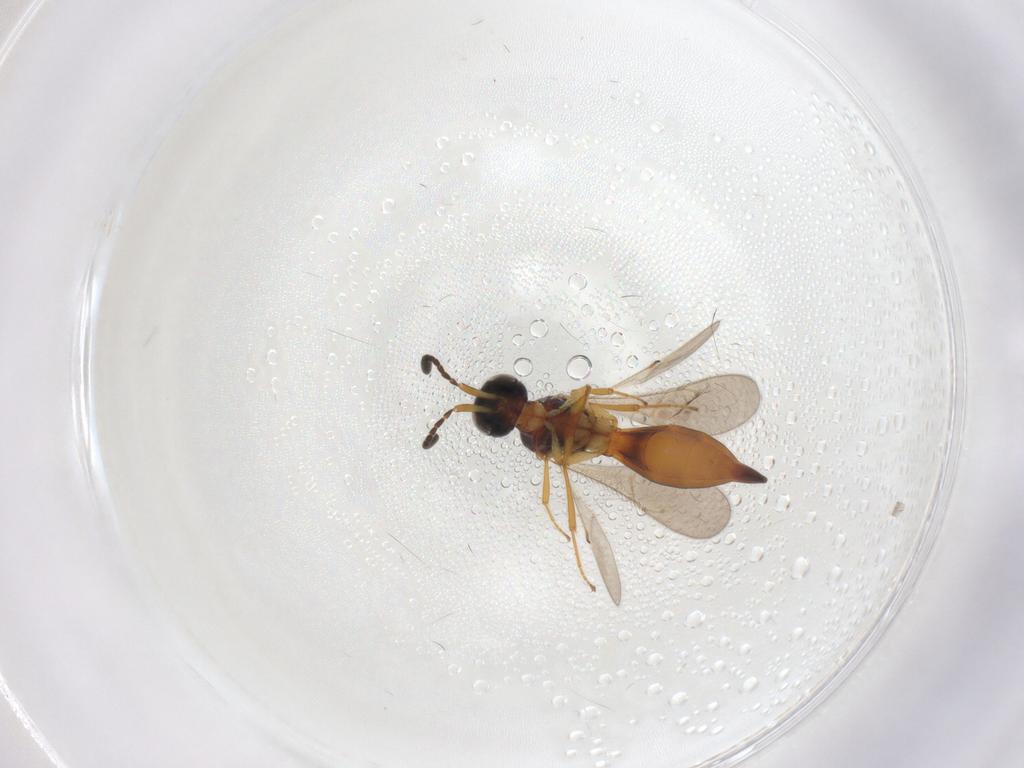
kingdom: Animalia
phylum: Arthropoda
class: Insecta
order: Hymenoptera
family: Scelionidae
